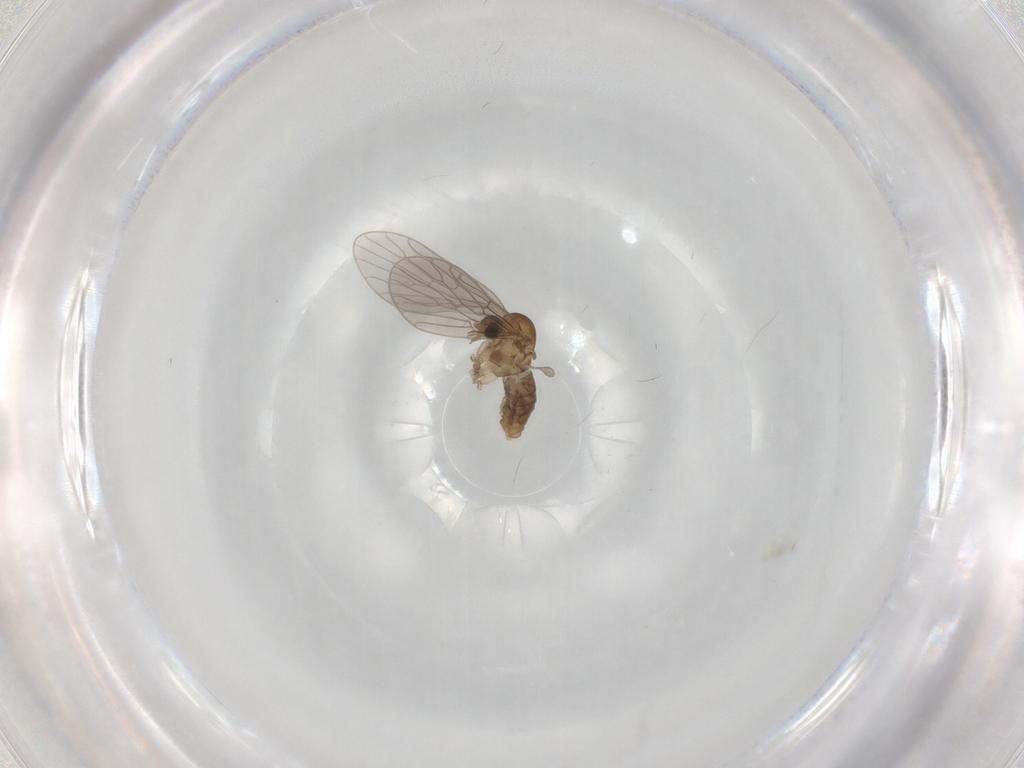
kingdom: Animalia
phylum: Arthropoda
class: Insecta
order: Diptera
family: Psychodidae
